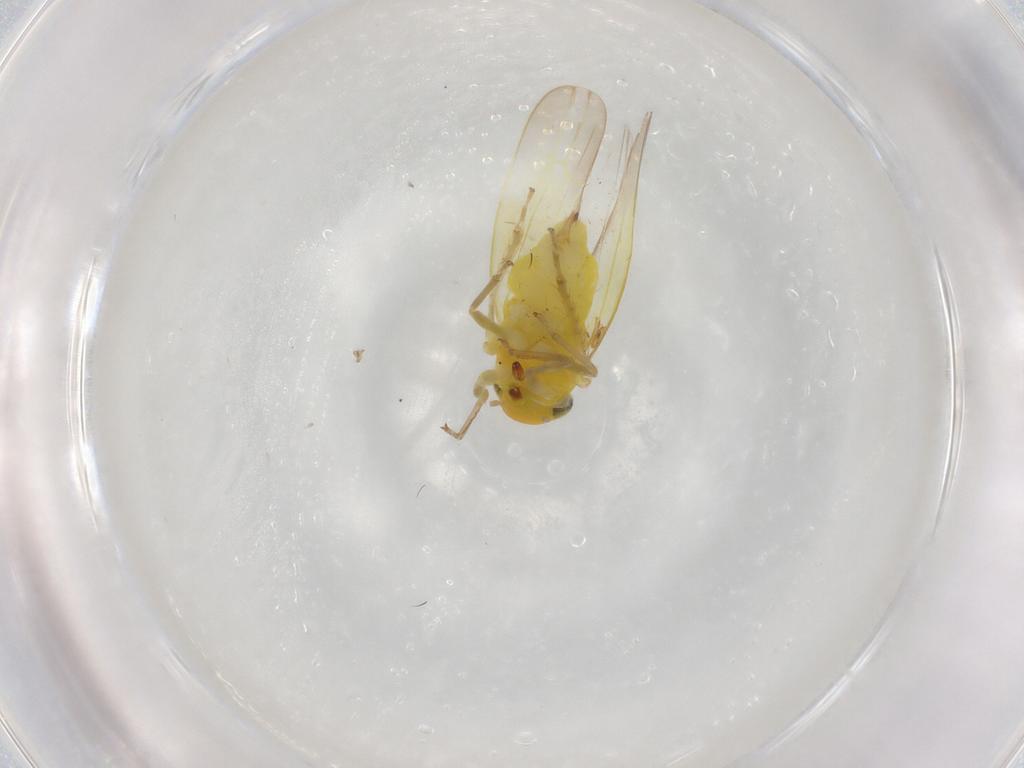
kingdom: Animalia
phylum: Arthropoda
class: Insecta
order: Hemiptera
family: Cicadellidae
